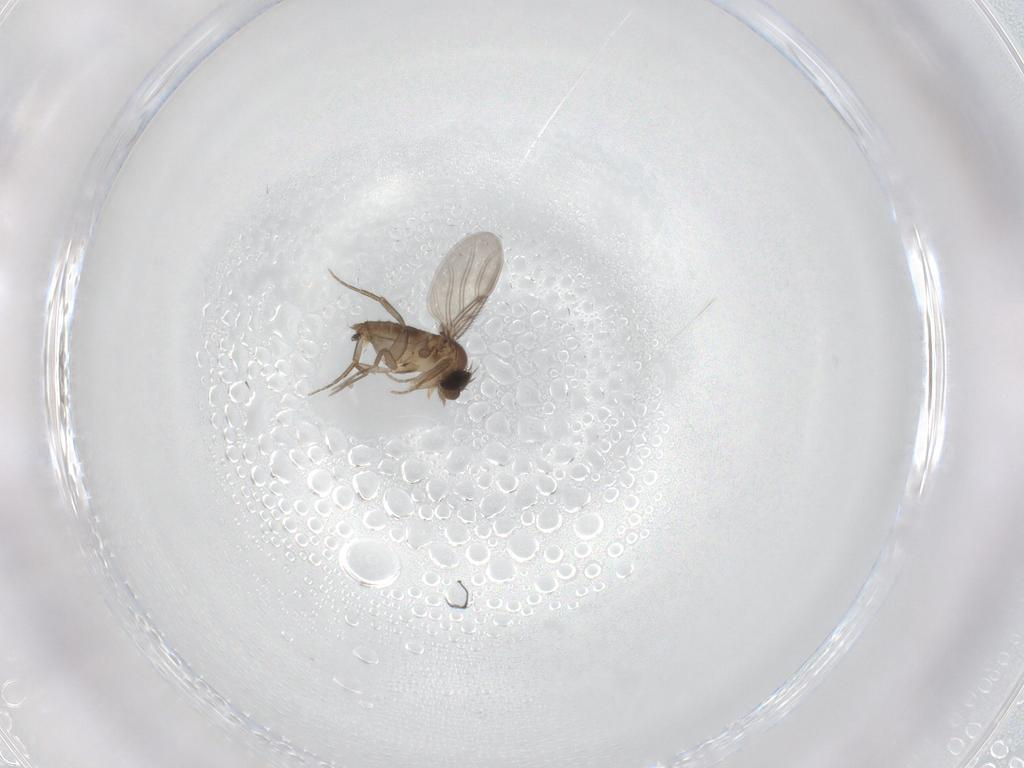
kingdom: Animalia
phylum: Arthropoda
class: Insecta
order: Diptera
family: Phoridae
